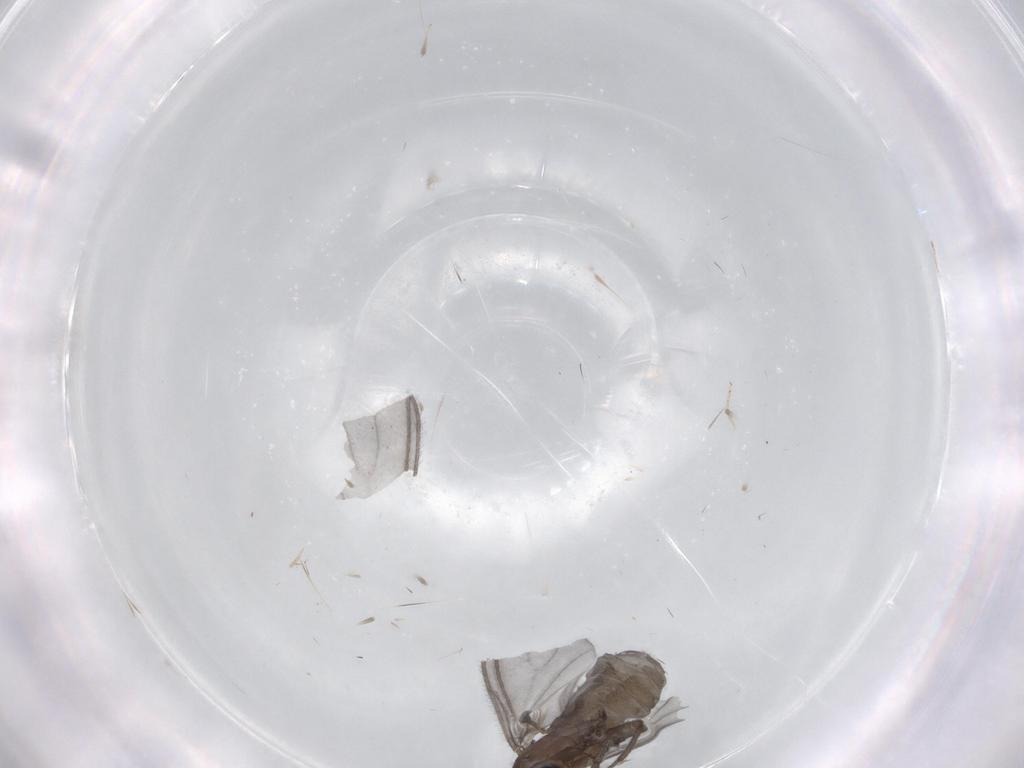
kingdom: Animalia
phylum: Arthropoda
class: Insecta
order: Diptera
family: Sciaridae
